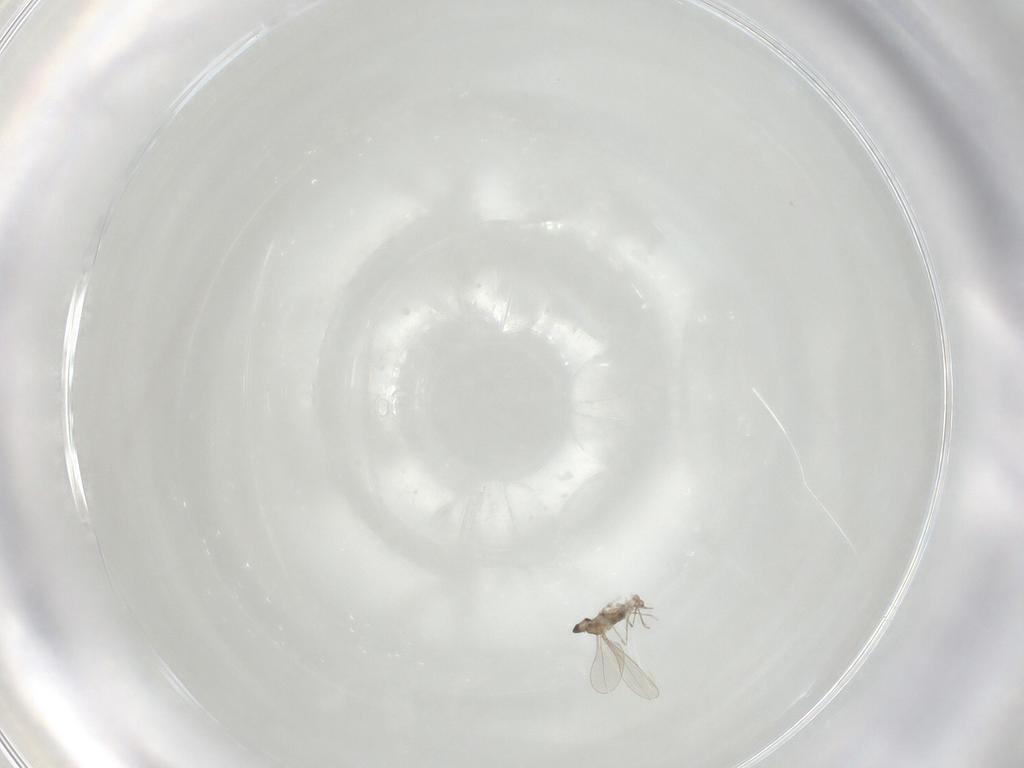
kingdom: Animalia
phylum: Arthropoda
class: Insecta
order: Diptera
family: Cecidomyiidae
